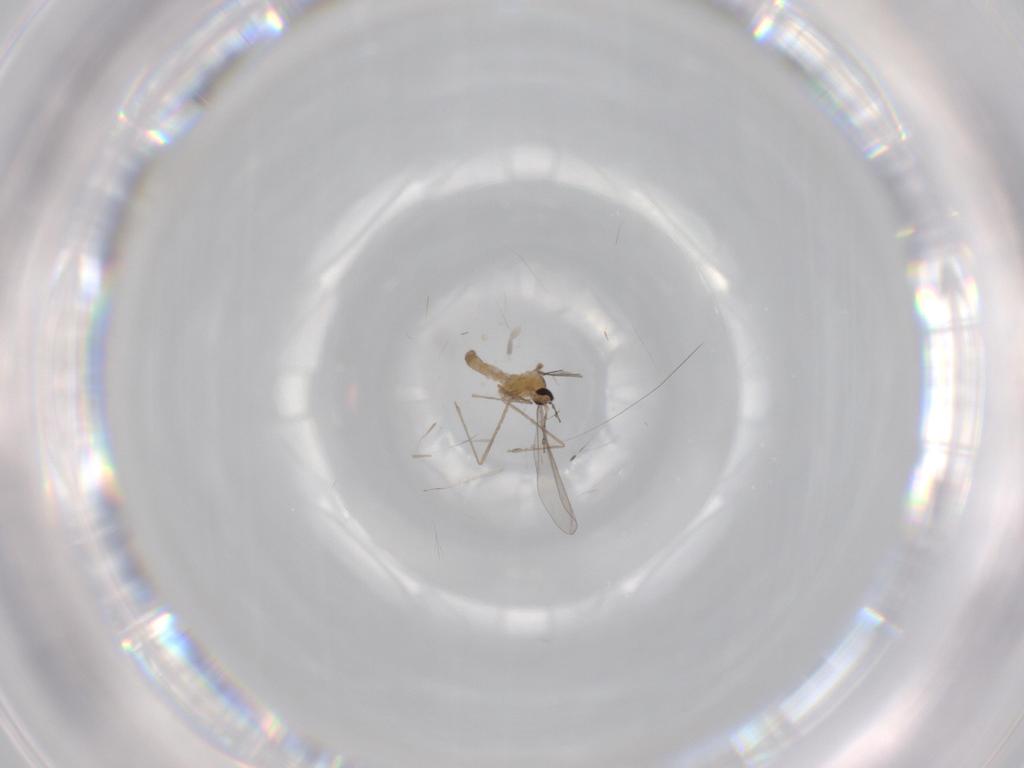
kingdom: Animalia
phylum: Arthropoda
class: Insecta
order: Diptera
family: Cecidomyiidae
